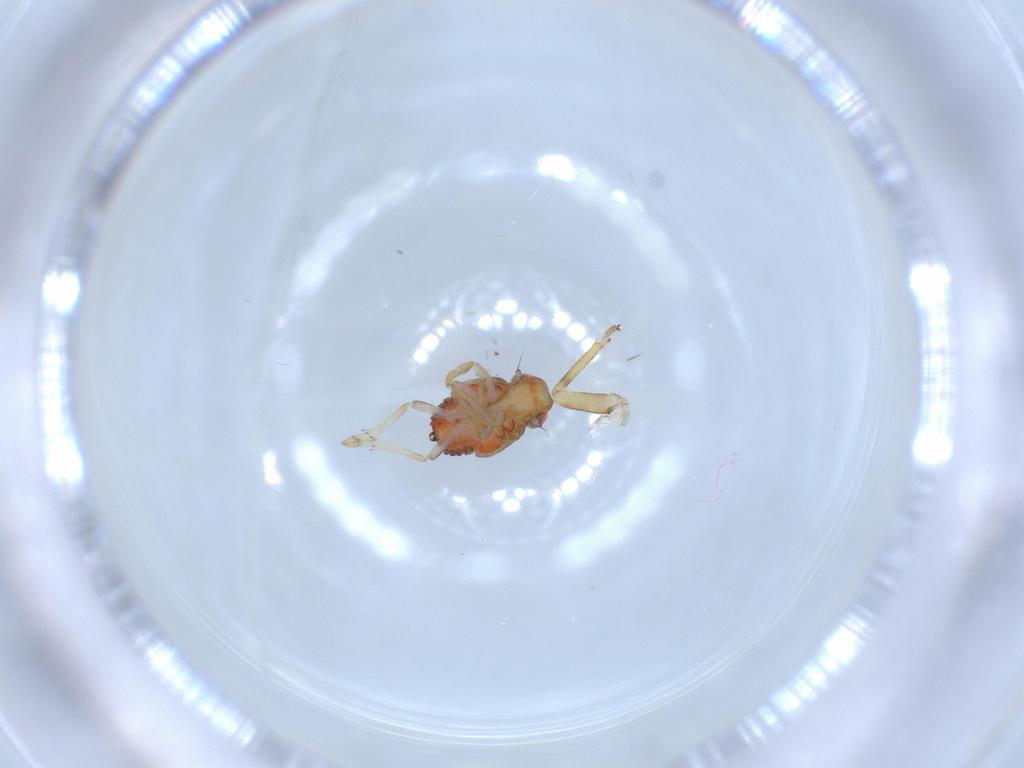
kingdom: Animalia
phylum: Arthropoda
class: Insecta
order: Hemiptera
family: Issidae
